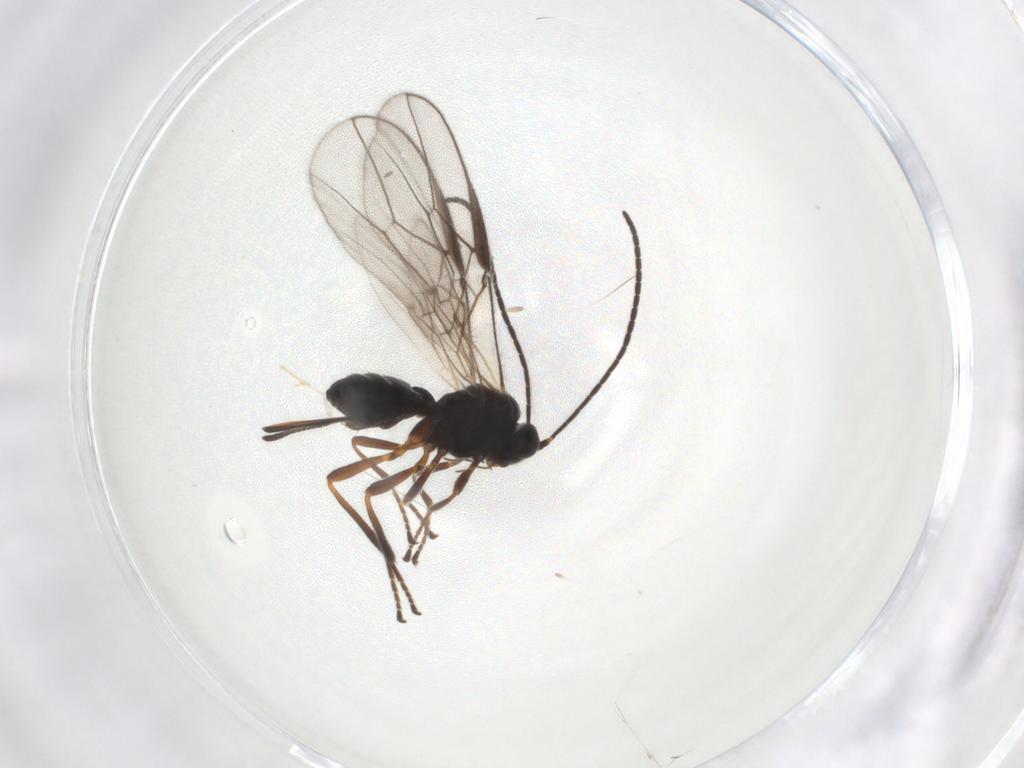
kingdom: Animalia
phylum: Arthropoda
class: Insecta
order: Hymenoptera
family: Braconidae
